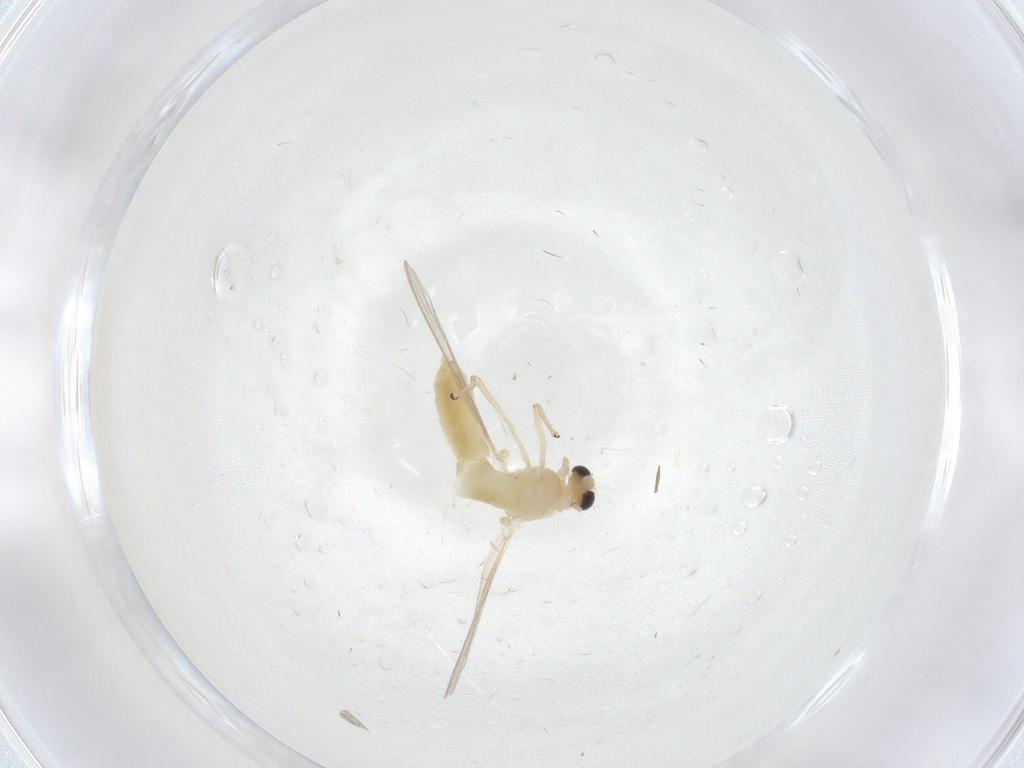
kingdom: Animalia
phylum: Arthropoda
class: Insecta
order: Diptera
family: Chironomidae
